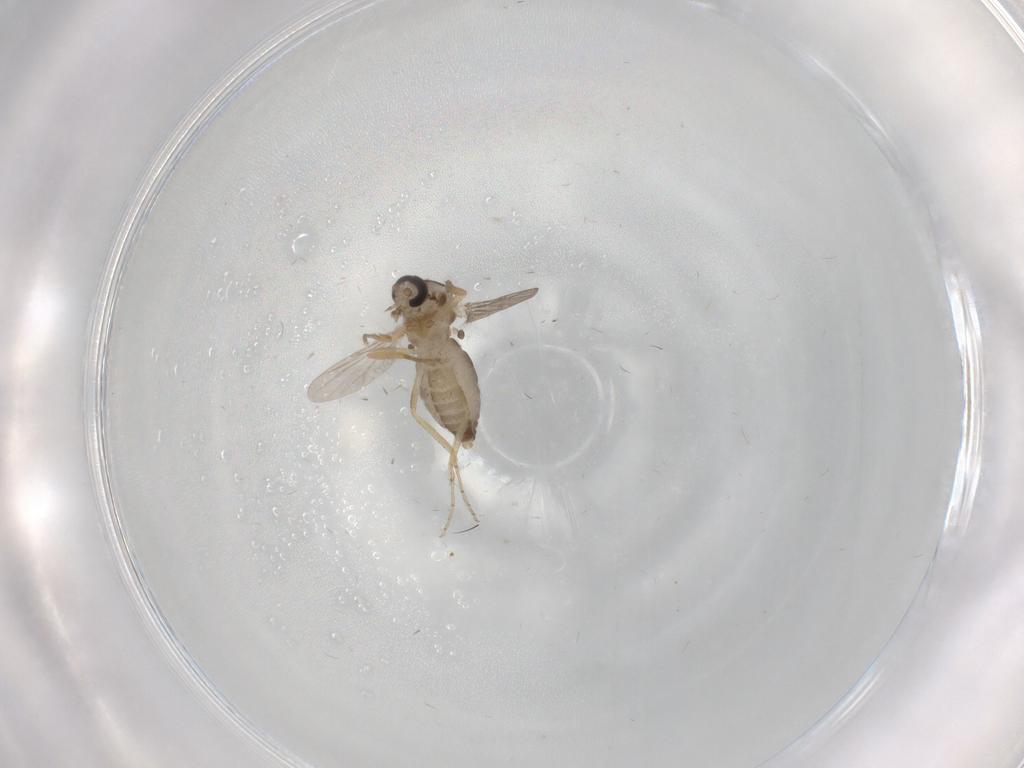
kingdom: Animalia
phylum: Arthropoda
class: Insecta
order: Diptera
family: Ceratopogonidae
